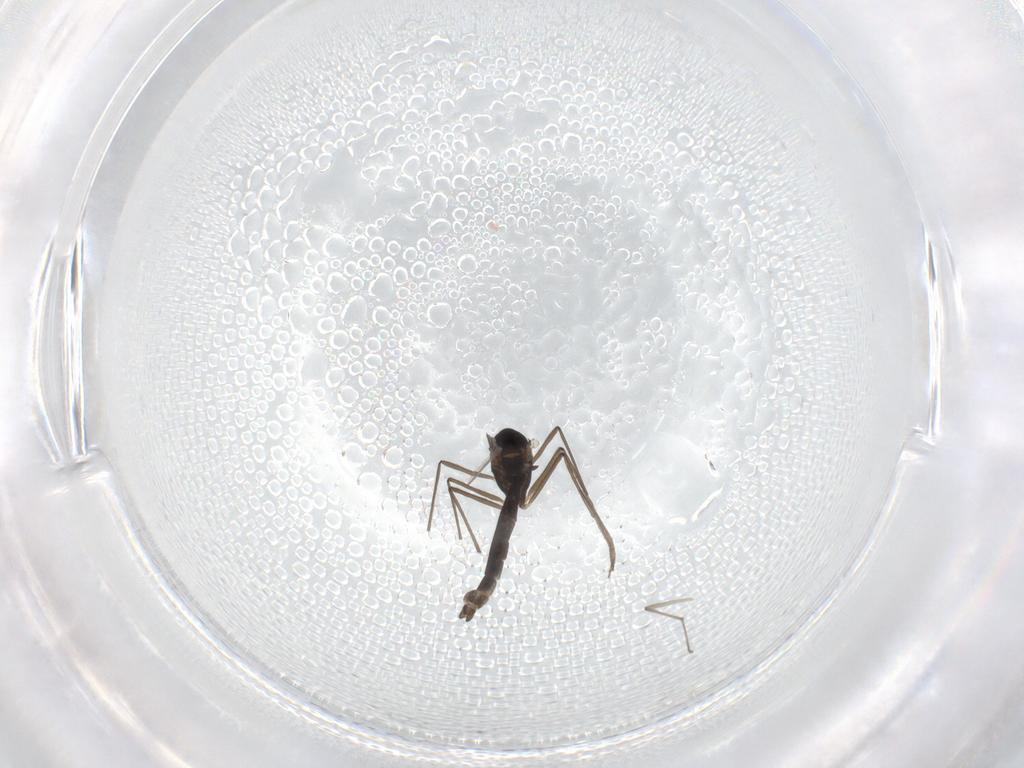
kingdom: Animalia
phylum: Arthropoda
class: Insecta
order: Diptera
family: Chironomidae
